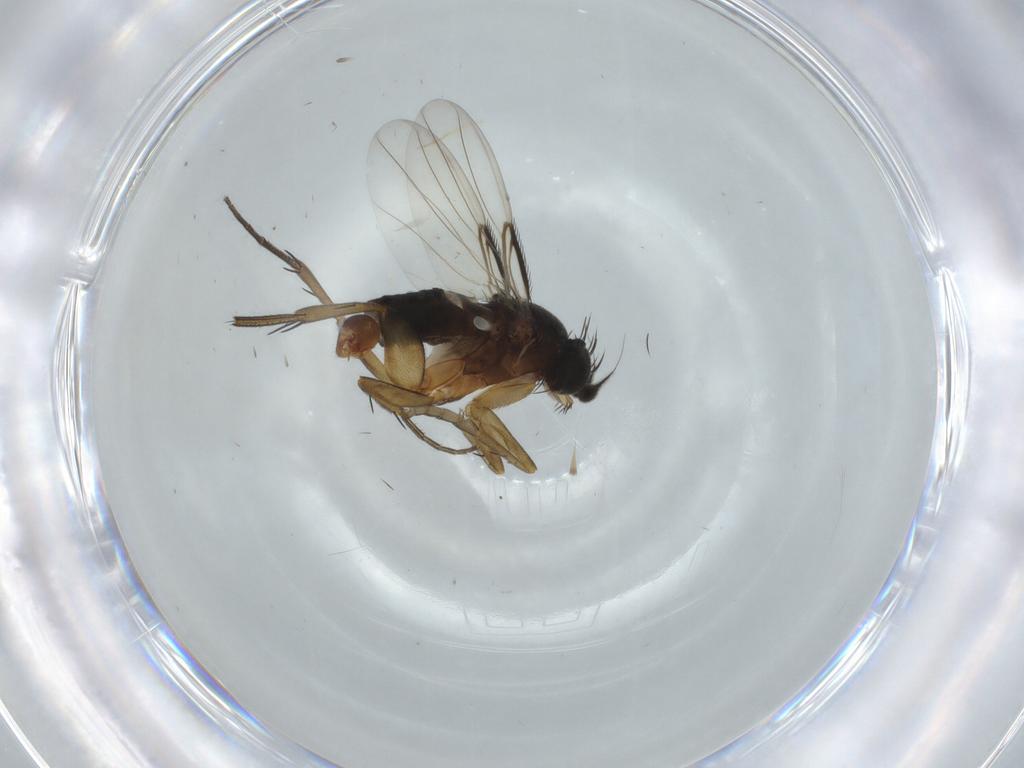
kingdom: Animalia
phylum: Arthropoda
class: Insecta
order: Diptera
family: Phoridae
